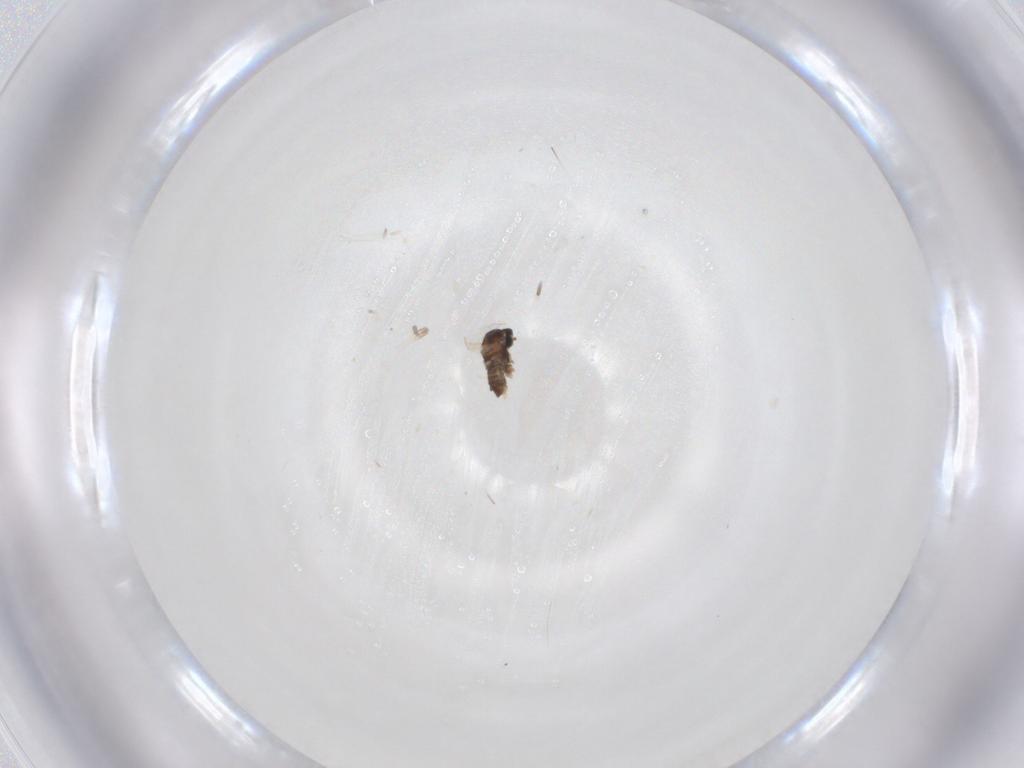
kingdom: Animalia
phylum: Arthropoda
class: Insecta
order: Diptera
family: Cecidomyiidae
